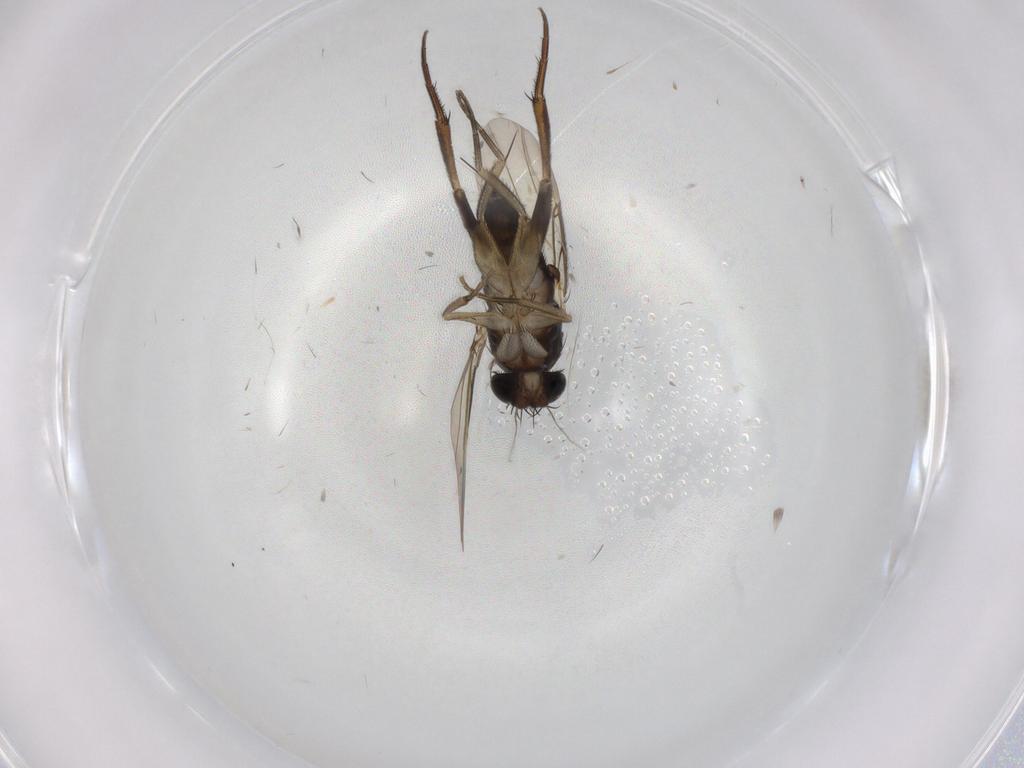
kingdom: Animalia
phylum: Arthropoda
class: Insecta
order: Diptera
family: Phoridae
